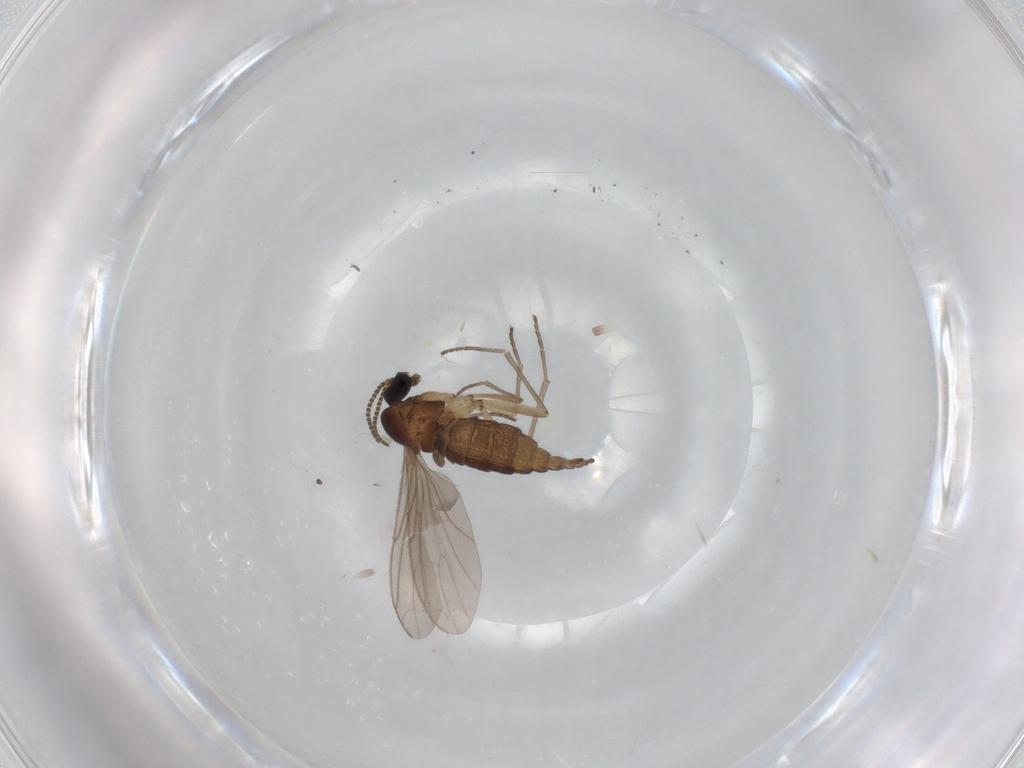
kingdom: Animalia
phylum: Arthropoda
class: Insecta
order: Diptera
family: Sciaridae
